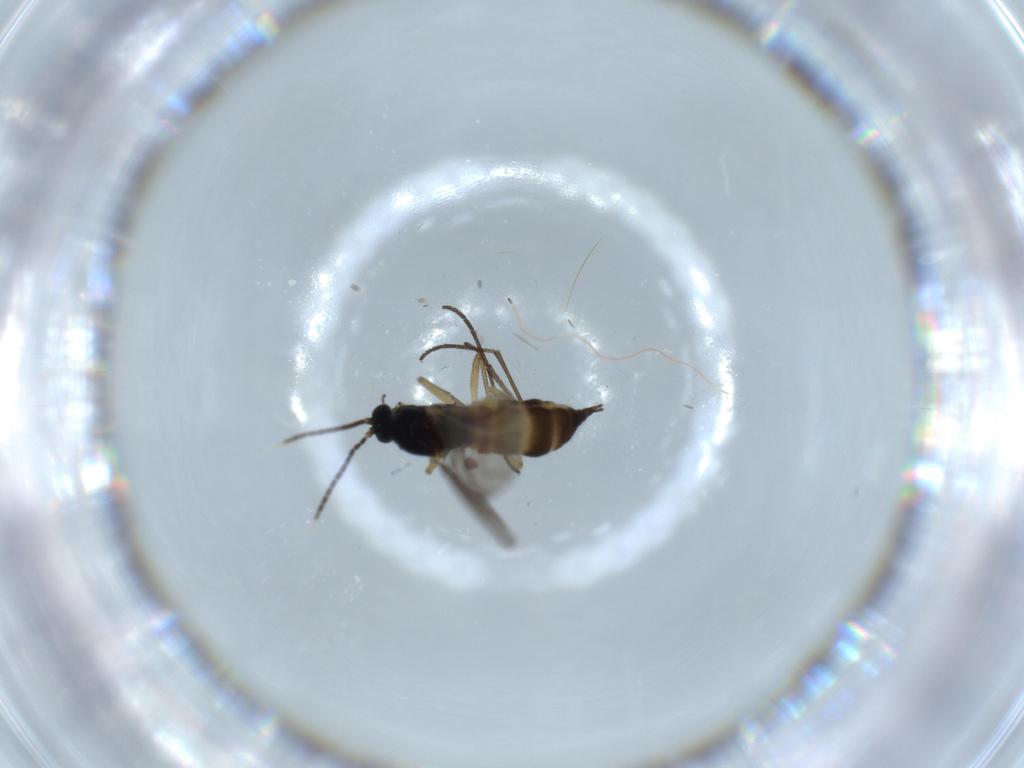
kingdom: Animalia
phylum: Arthropoda
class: Insecta
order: Diptera
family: Sciaridae
